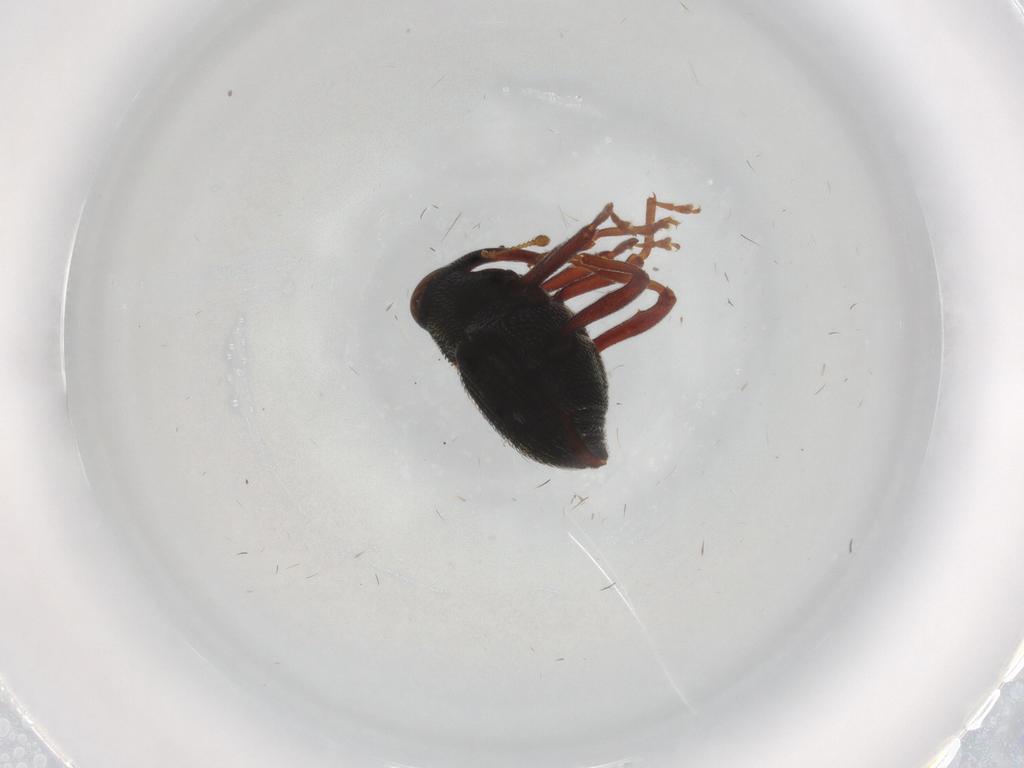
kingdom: Animalia
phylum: Arthropoda
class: Insecta
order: Coleoptera
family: Curculionidae
